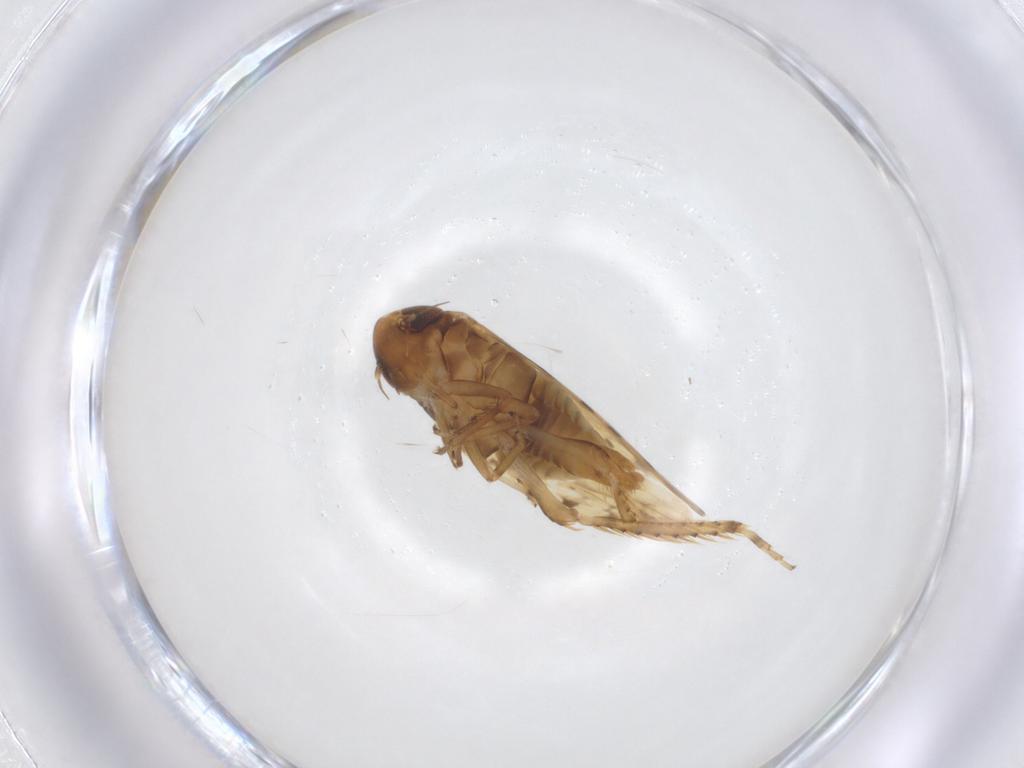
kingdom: Animalia
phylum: Arthropoda
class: Insecta
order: Hemiptera
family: Cicadellidae
